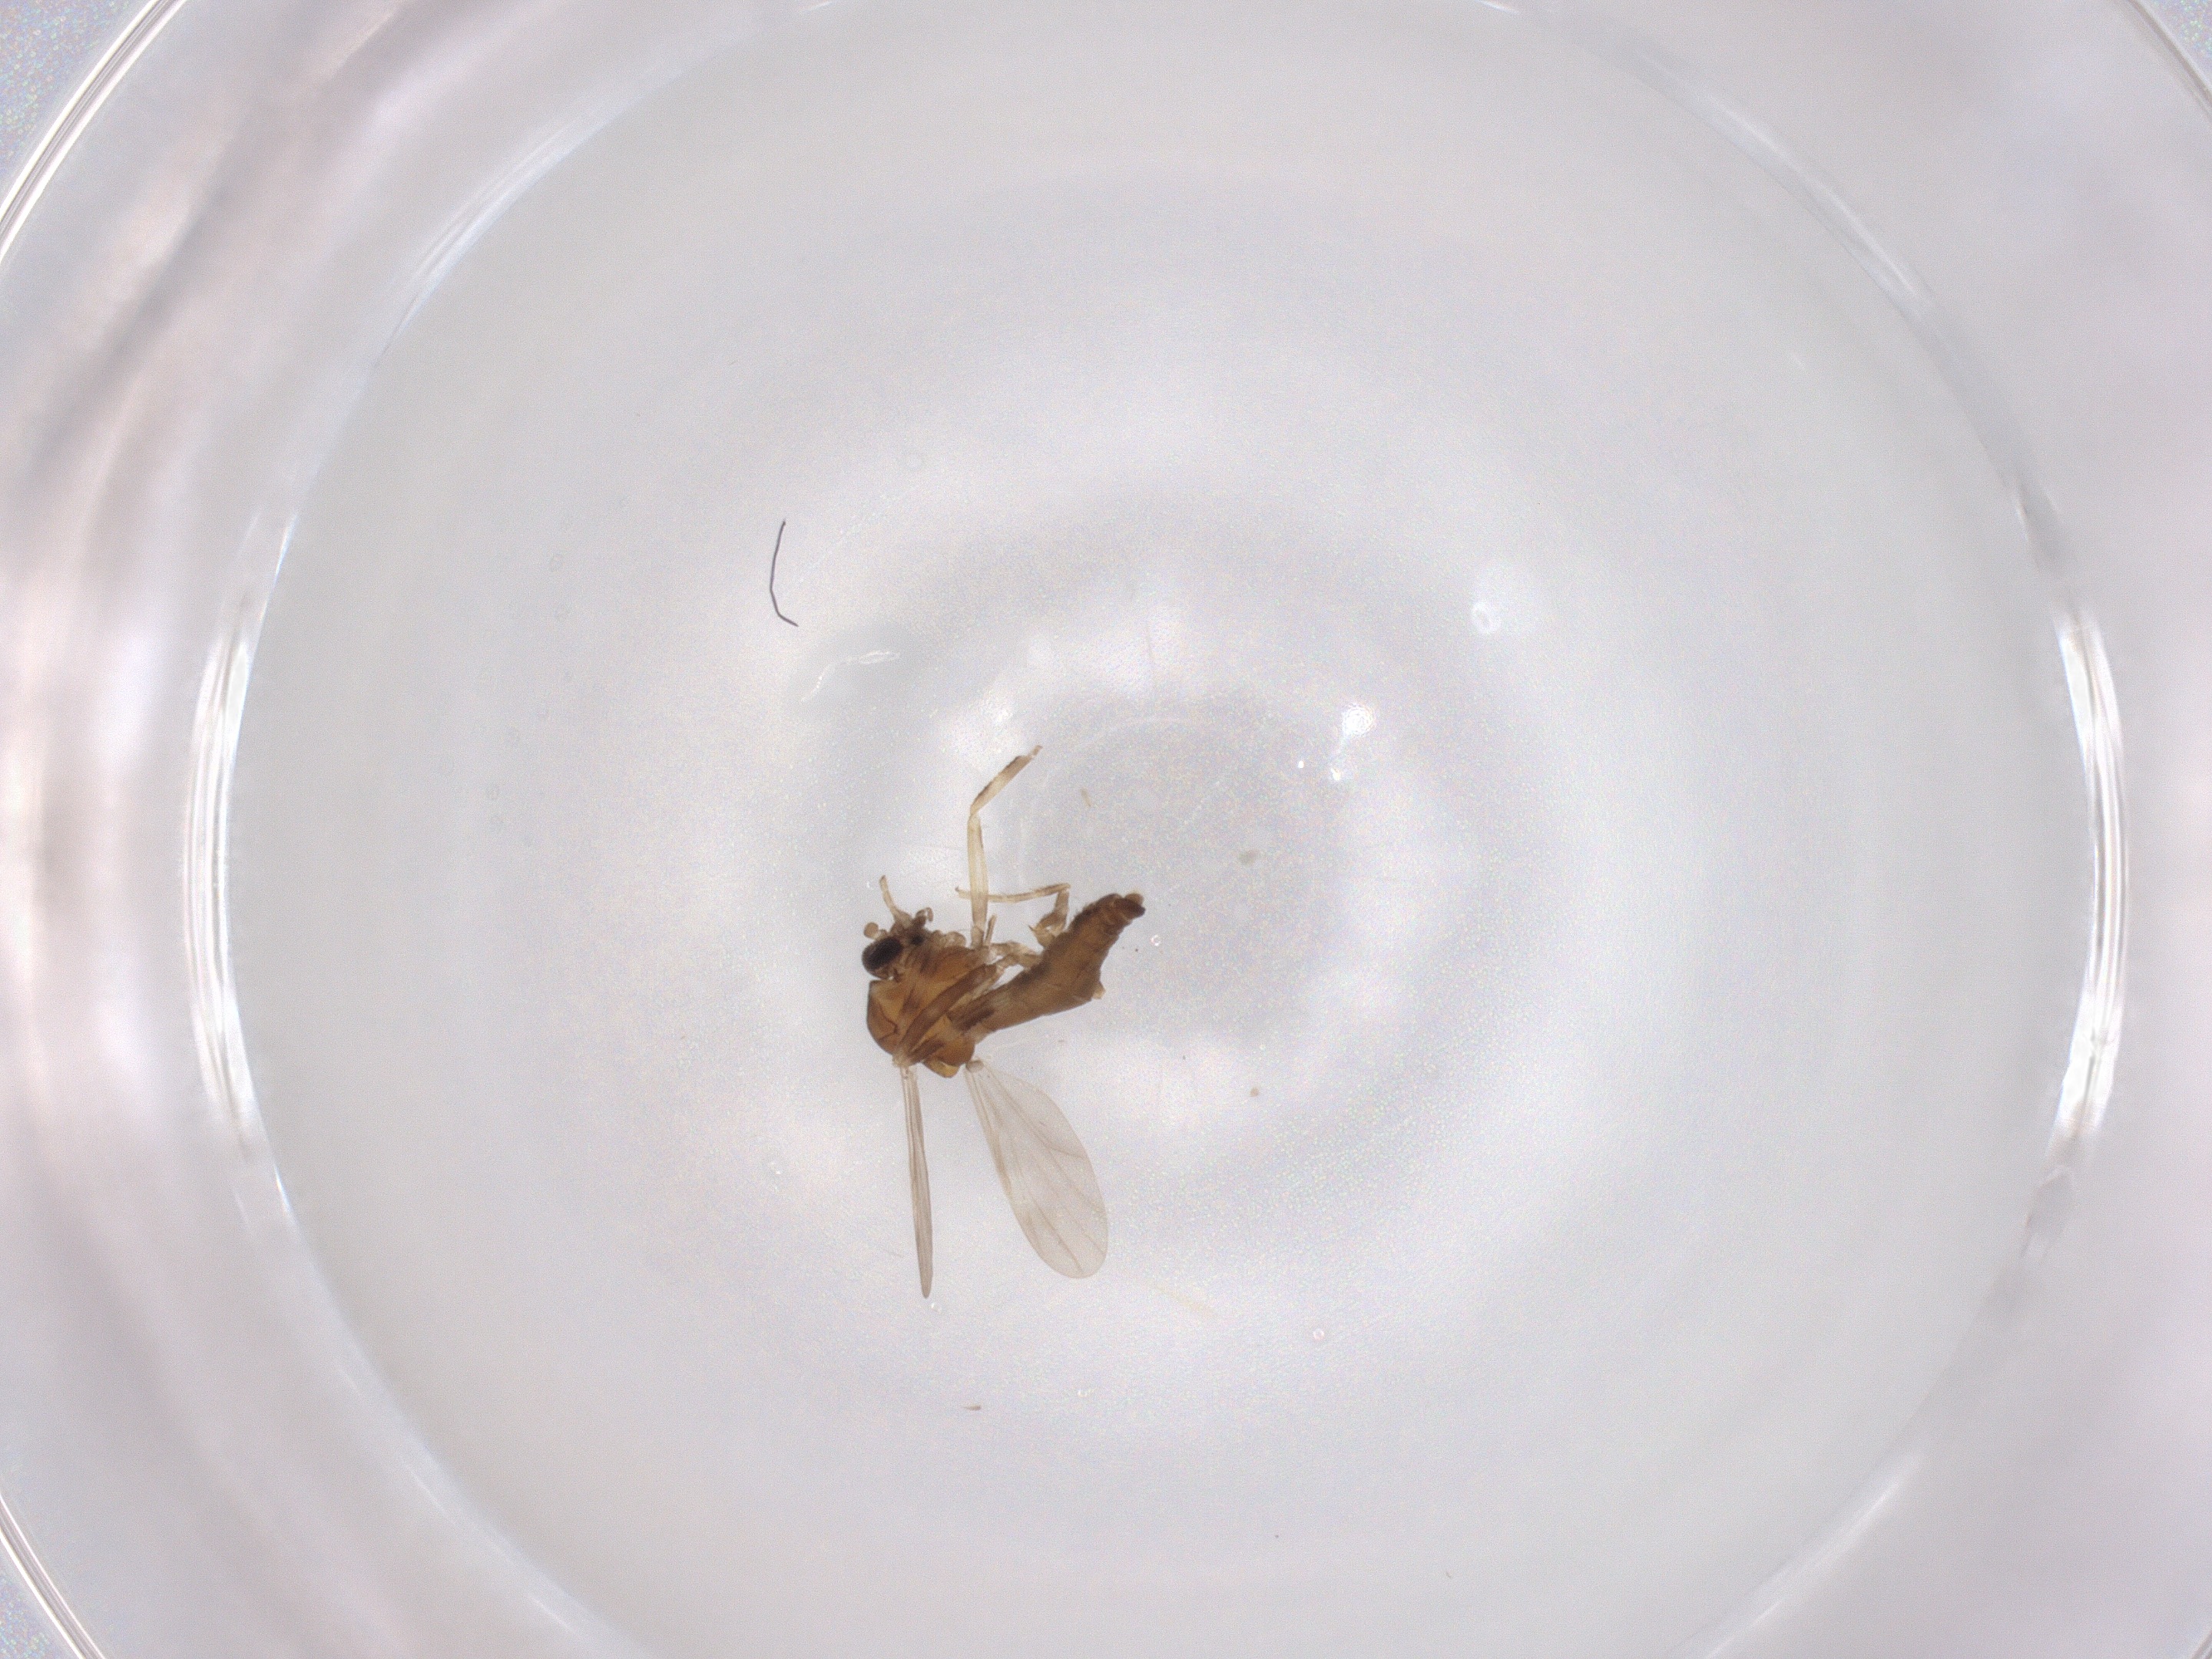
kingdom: Animalia
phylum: Arthropoda
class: Insecta
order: Diptera
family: Ceratopogonidae
